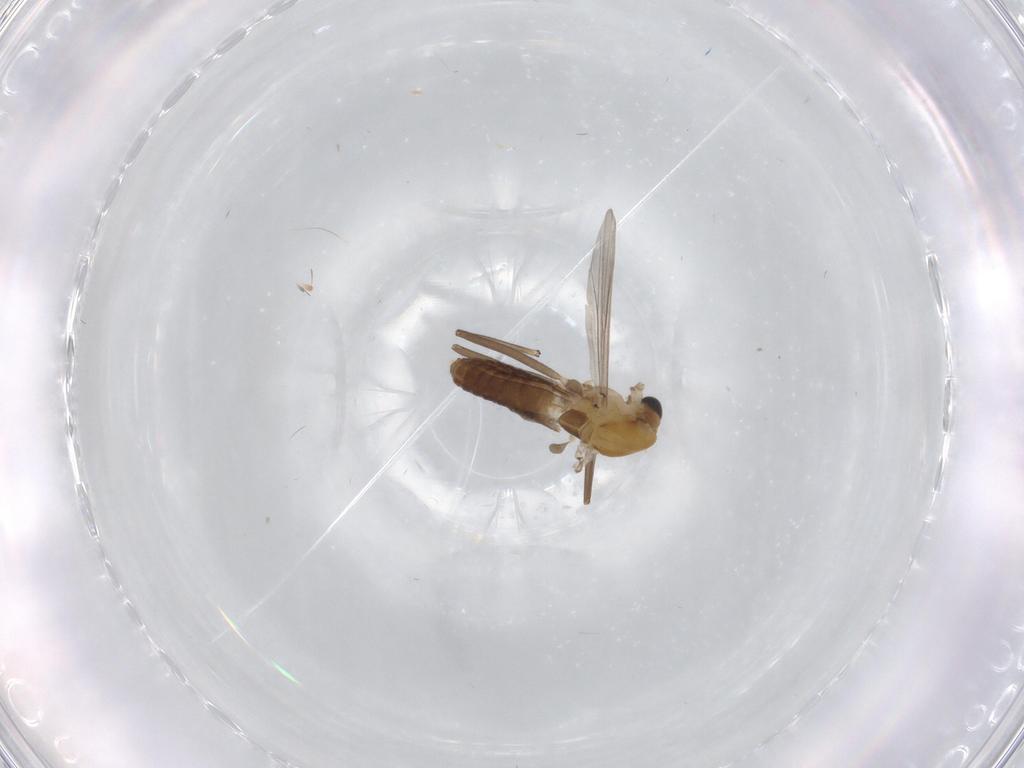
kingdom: Animalia
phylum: Arthropoda
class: Insecta
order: Diptera
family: Chironomidae
